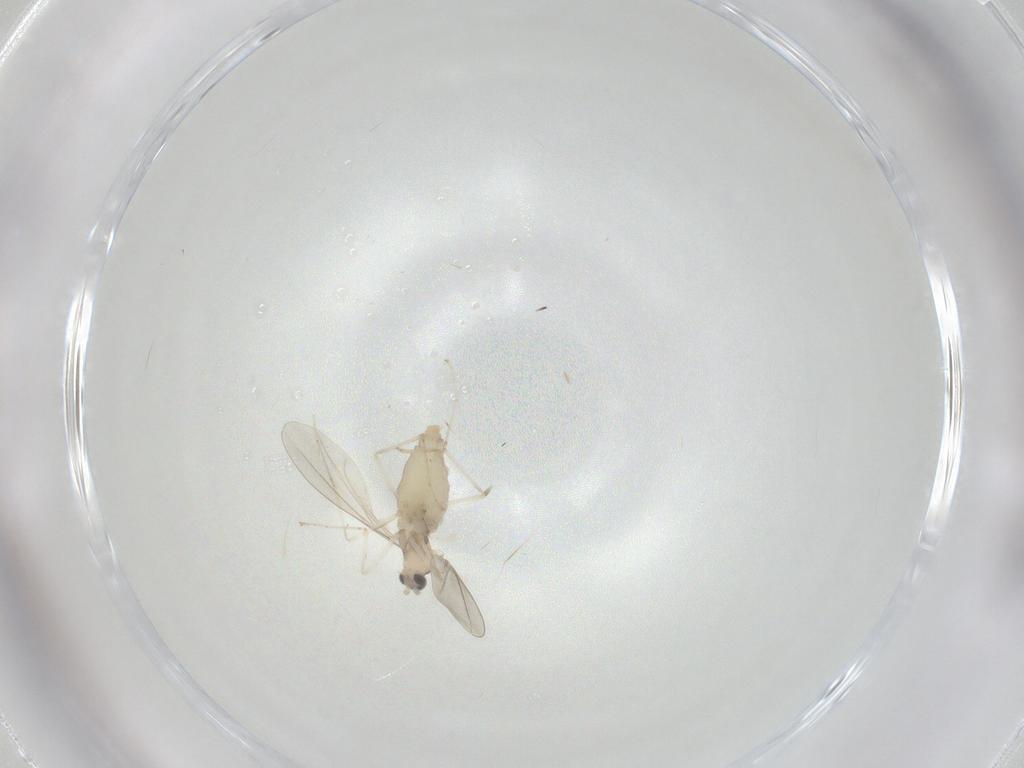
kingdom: Animalia
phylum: Arthropoda
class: Insecta
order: Diptera
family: Cecidomyiidae
